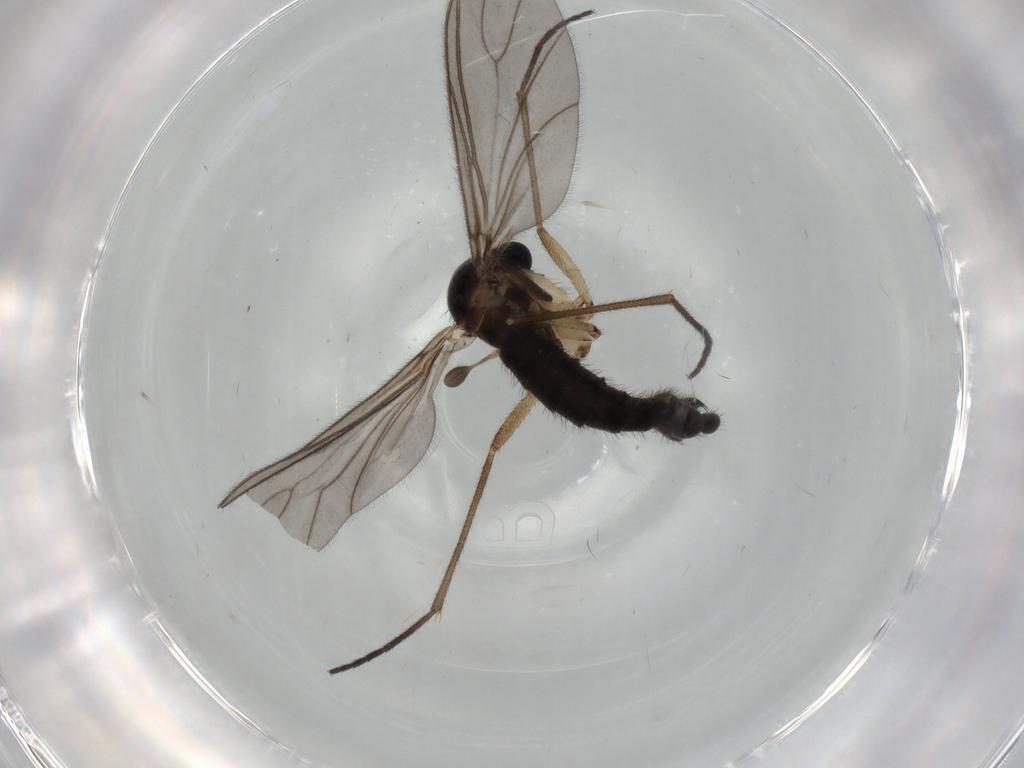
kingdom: Animalia
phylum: Arthropoda
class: Insecta
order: Diptera
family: Sciaridae
